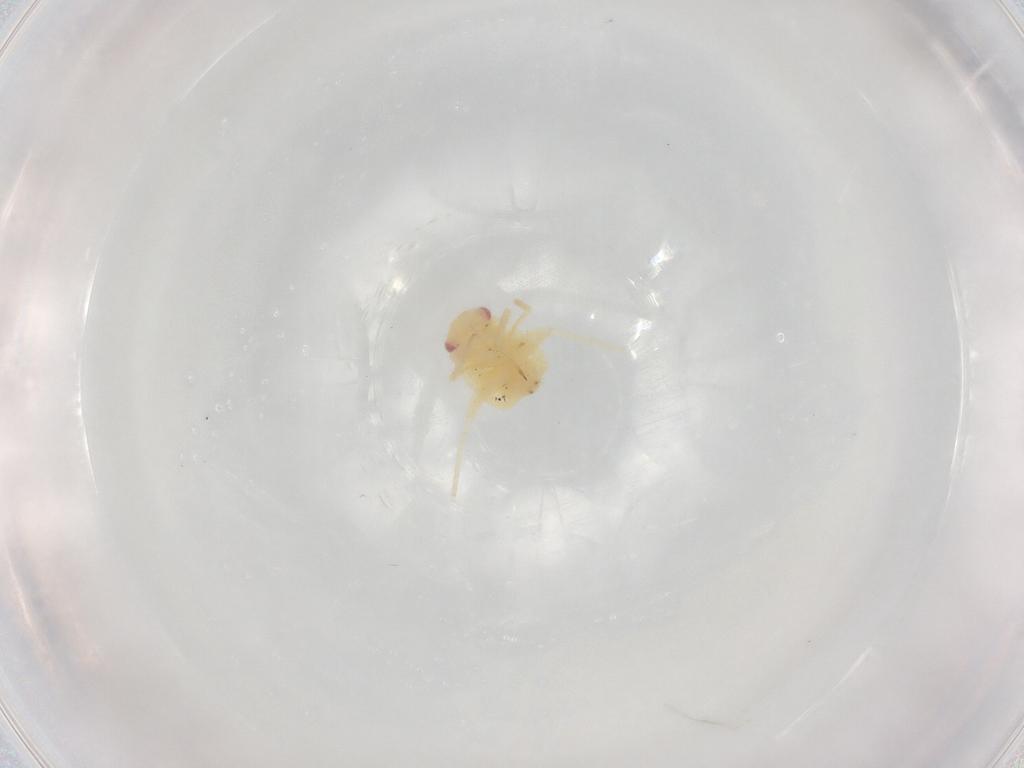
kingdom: Animalia
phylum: Arthropoda
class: Insecta
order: Hemiptera
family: Miridae
